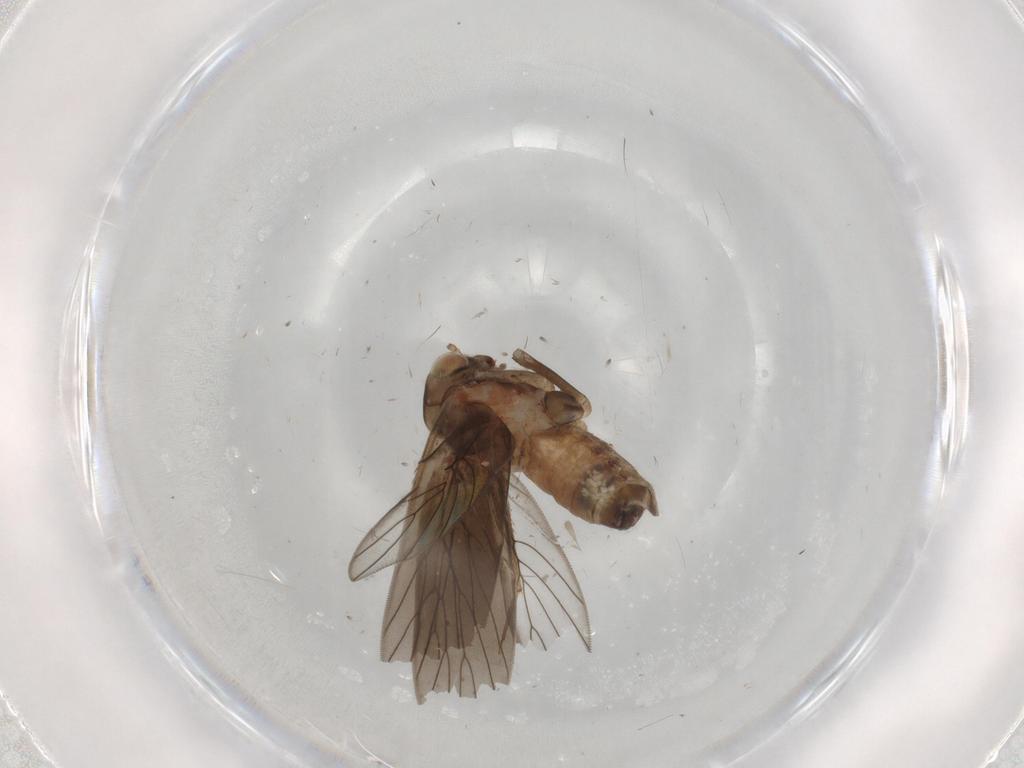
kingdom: Animalia
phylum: Arthropoda
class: Insecta
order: Psocodea
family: Lepidopsocidae
